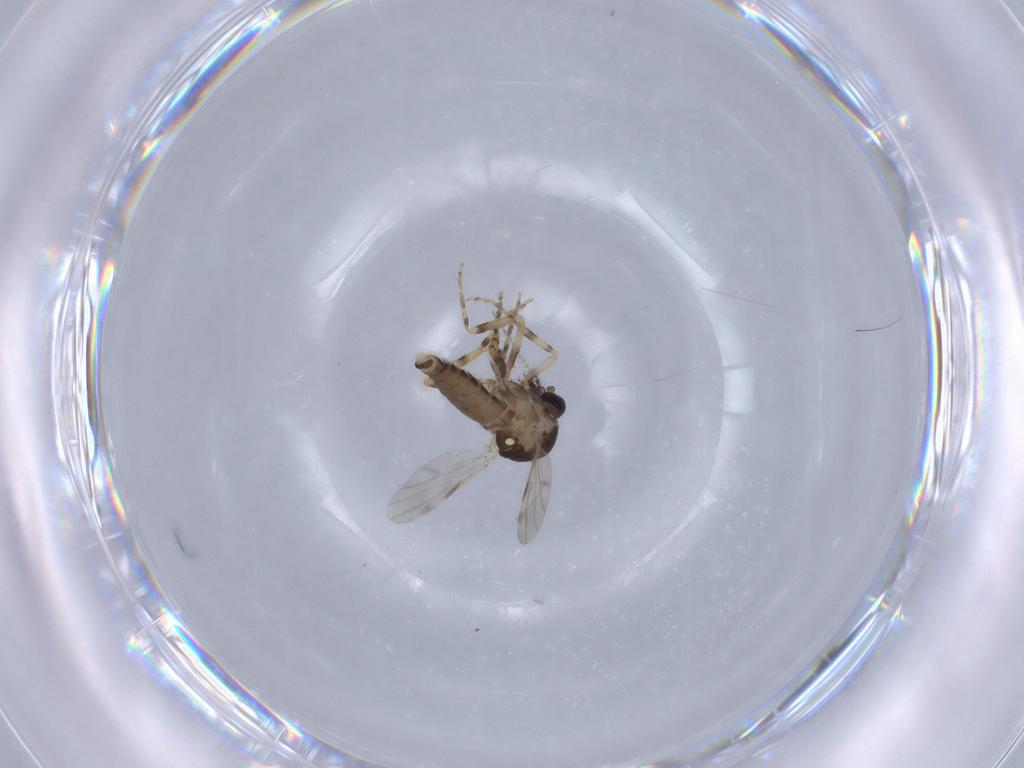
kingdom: Animalia
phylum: Arthropoda
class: Insecta
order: Diptera
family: Ceratopogonidae
